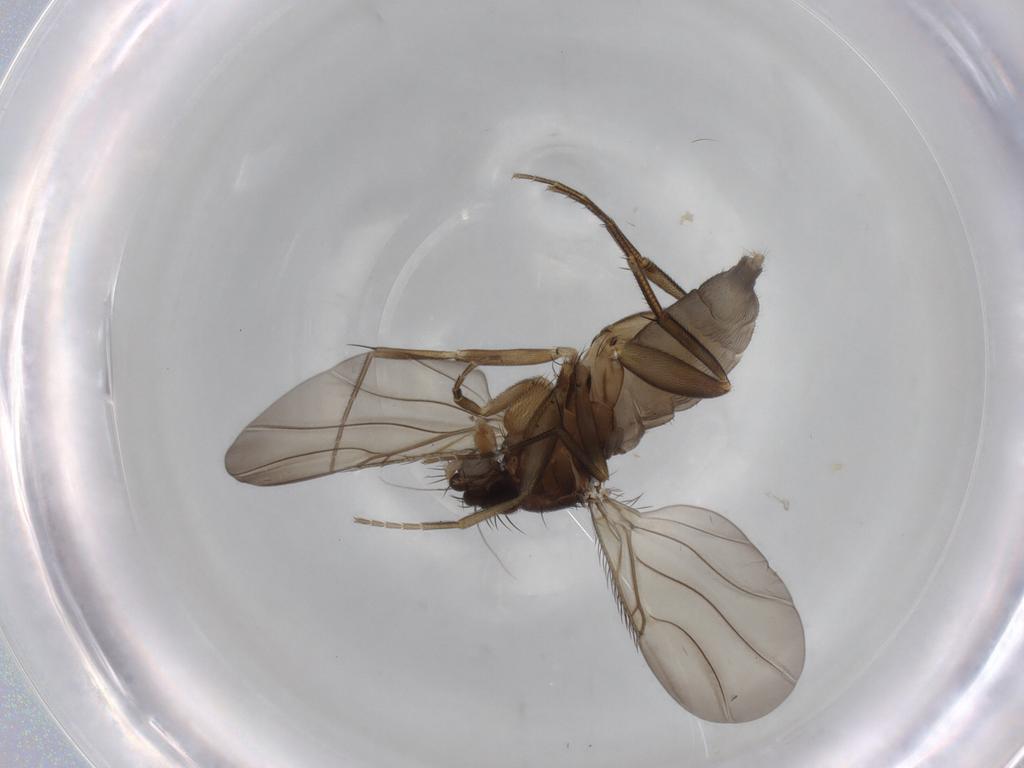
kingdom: Animalia
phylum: Arthropoda
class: Insecta
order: Diptera
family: Phoridae
